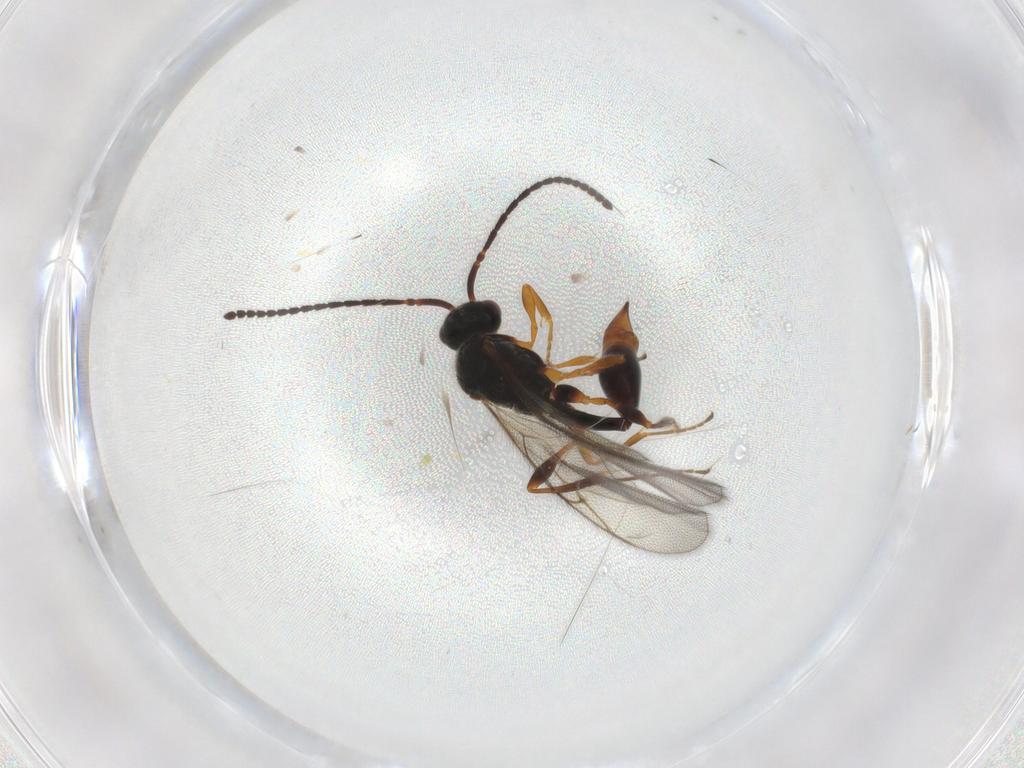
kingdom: Animalia
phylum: Arthropoda
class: Insecta
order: Hymenoptera
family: Diapriidae
